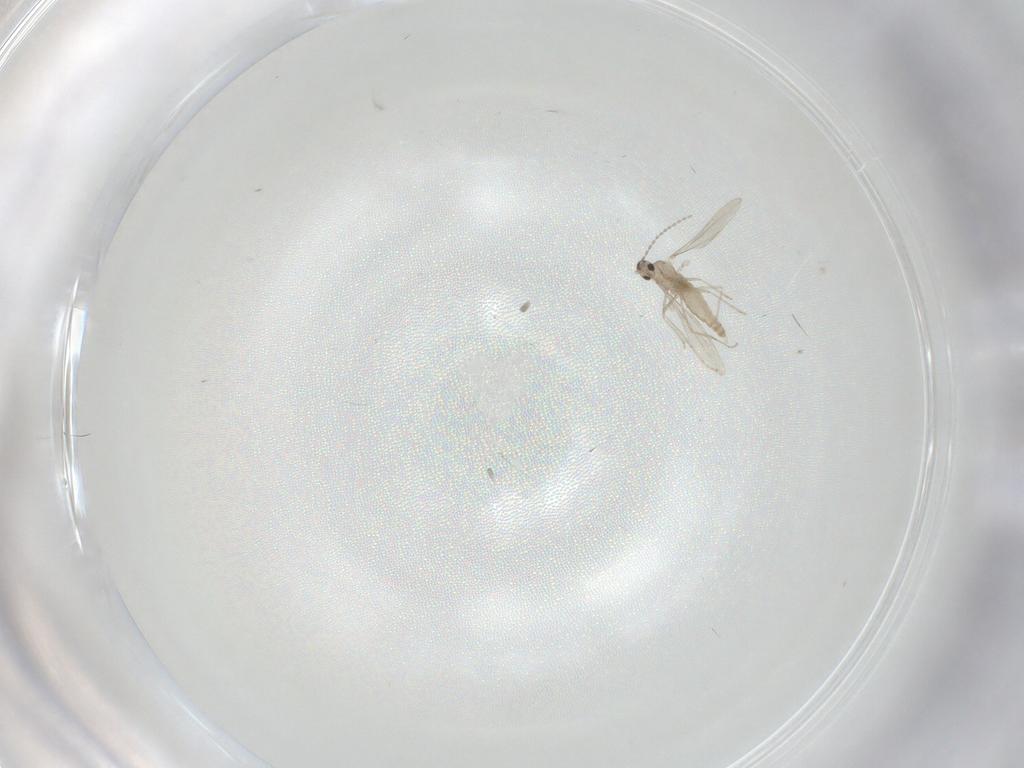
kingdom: Animalia
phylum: Arthropoda
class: Insecta
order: Diptera
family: Cecidomyiidae
